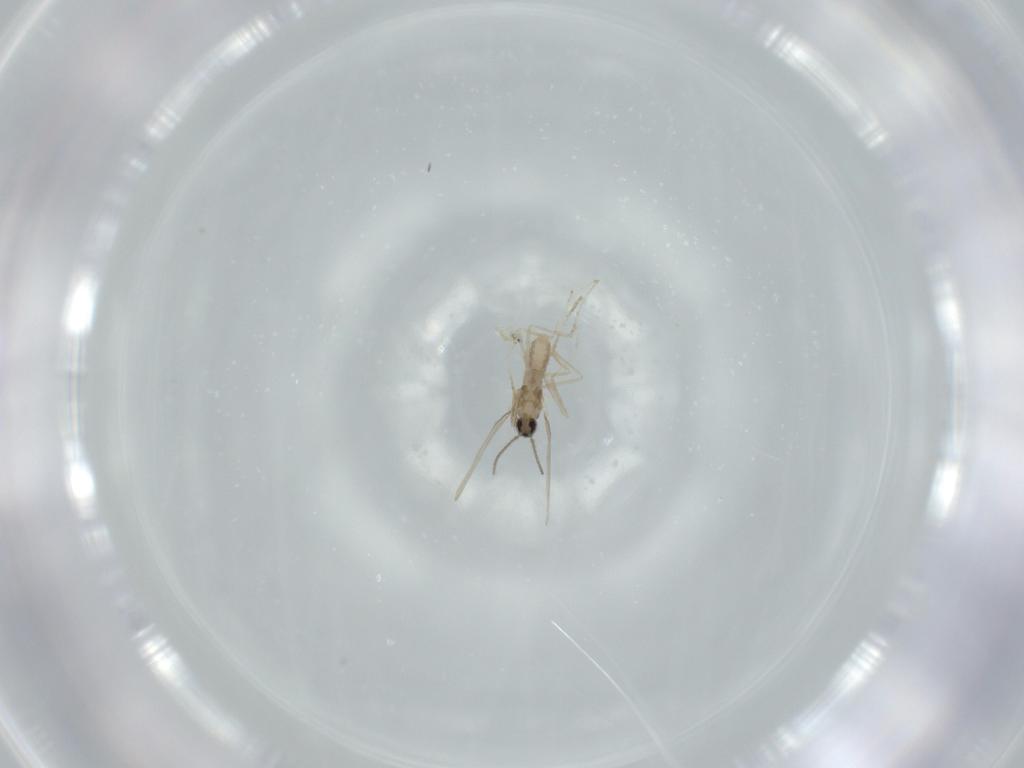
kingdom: Animalia
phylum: Arthropoda
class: Insecta
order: Diptera
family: Cecidomyiidae
